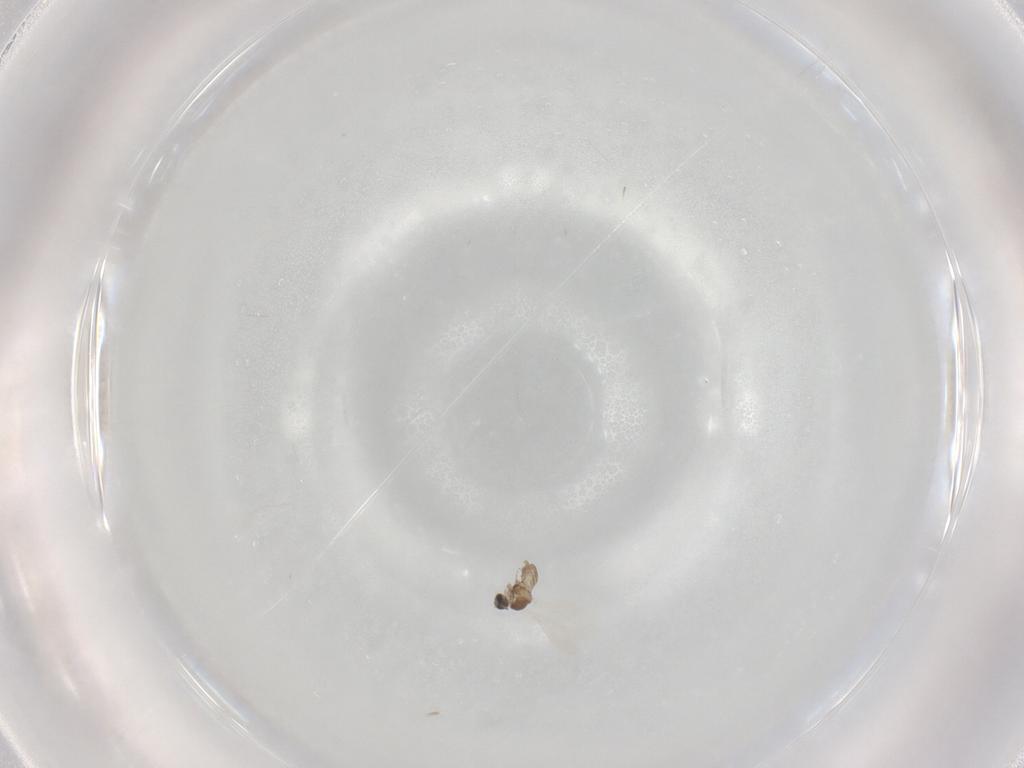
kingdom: Animalia
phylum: Arthropoda
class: Insecta
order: Diptera
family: Cecidomyiidae
